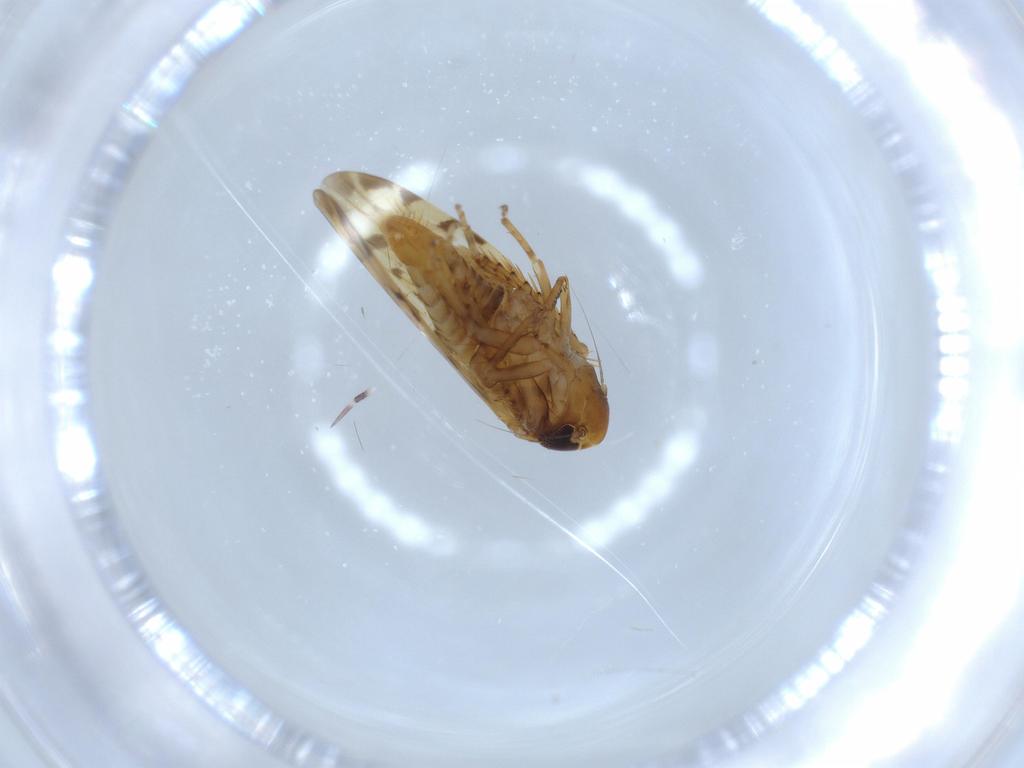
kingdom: Animalia
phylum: Arthropoda
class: Insecta
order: Hemiptera
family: Cicadellidae
